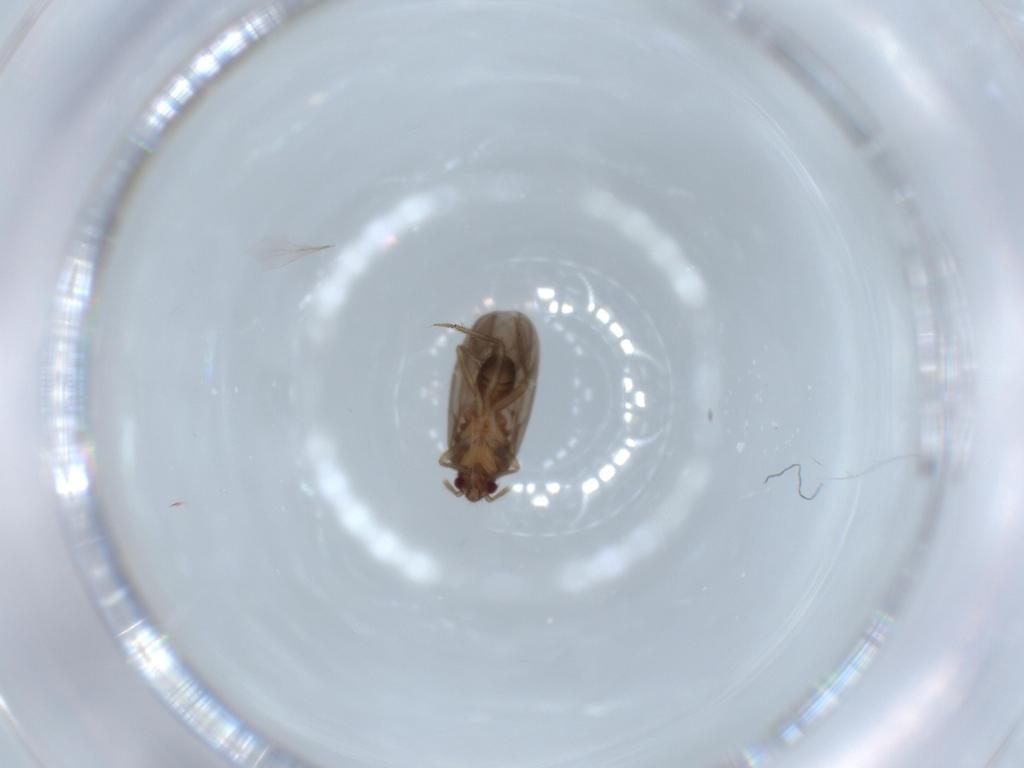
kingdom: Animalia
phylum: Arthropoda
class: Insecta
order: Hemiptera
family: Ceratocombidae
